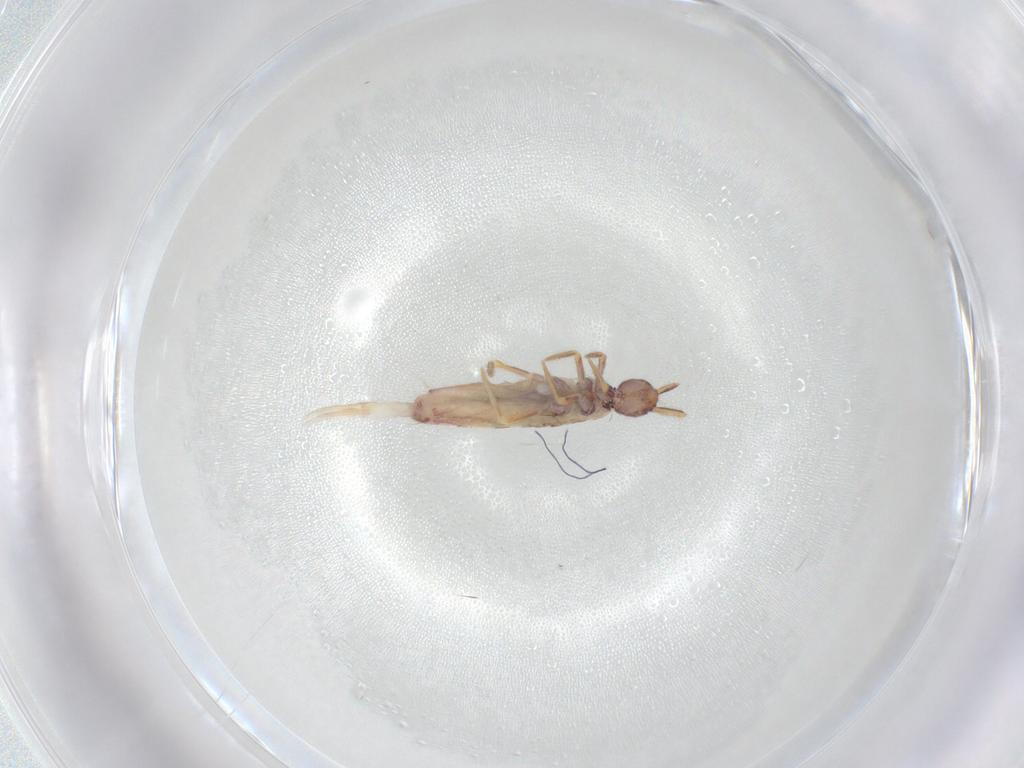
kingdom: Animalia
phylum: Arthropoda
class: Collembola
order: Entomobryomorpha
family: Entomobryidae
